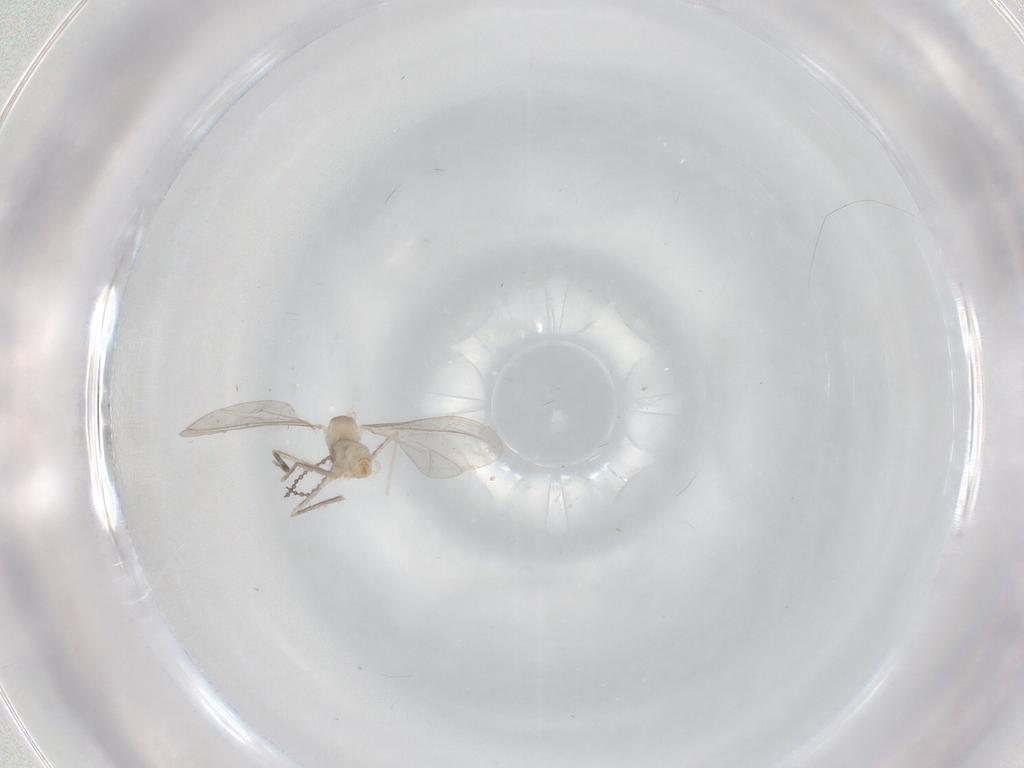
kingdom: Animalia
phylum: Arthropoda
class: Insecta
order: Diptera
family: Cecidomyiidae
